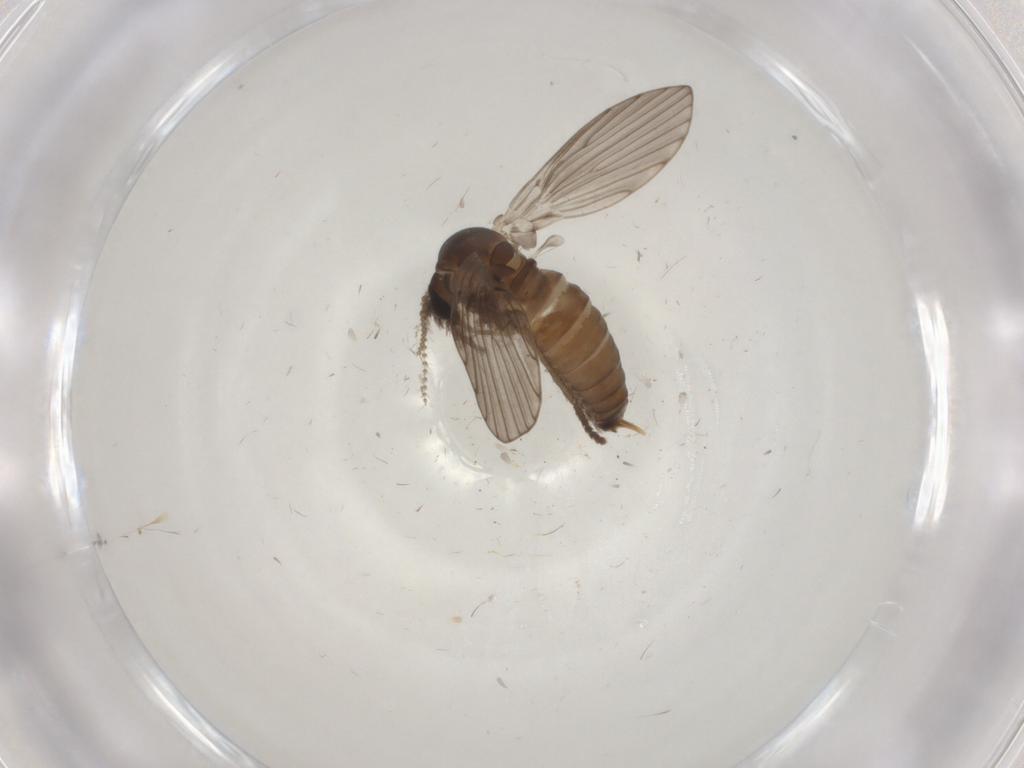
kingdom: Animalia
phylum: Arthropoda
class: Insecta
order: Diptera
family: Psychodidae
